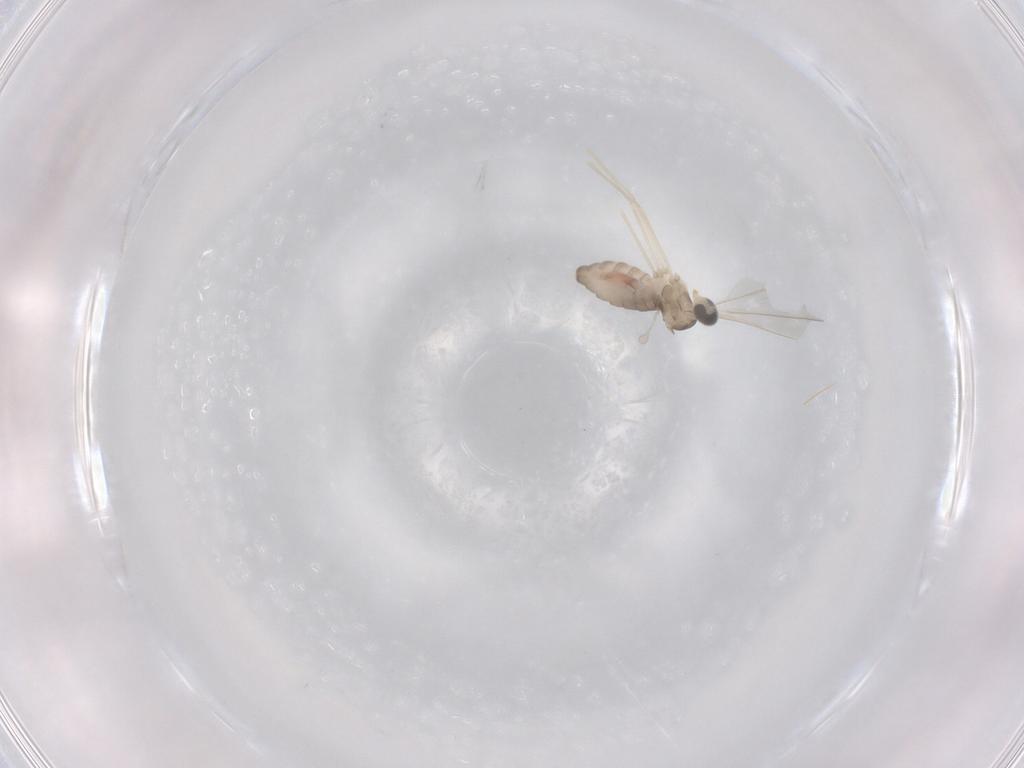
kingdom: Animalia
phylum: Arthropoda
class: Insecta
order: Diptera
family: Cecidomyiidae
